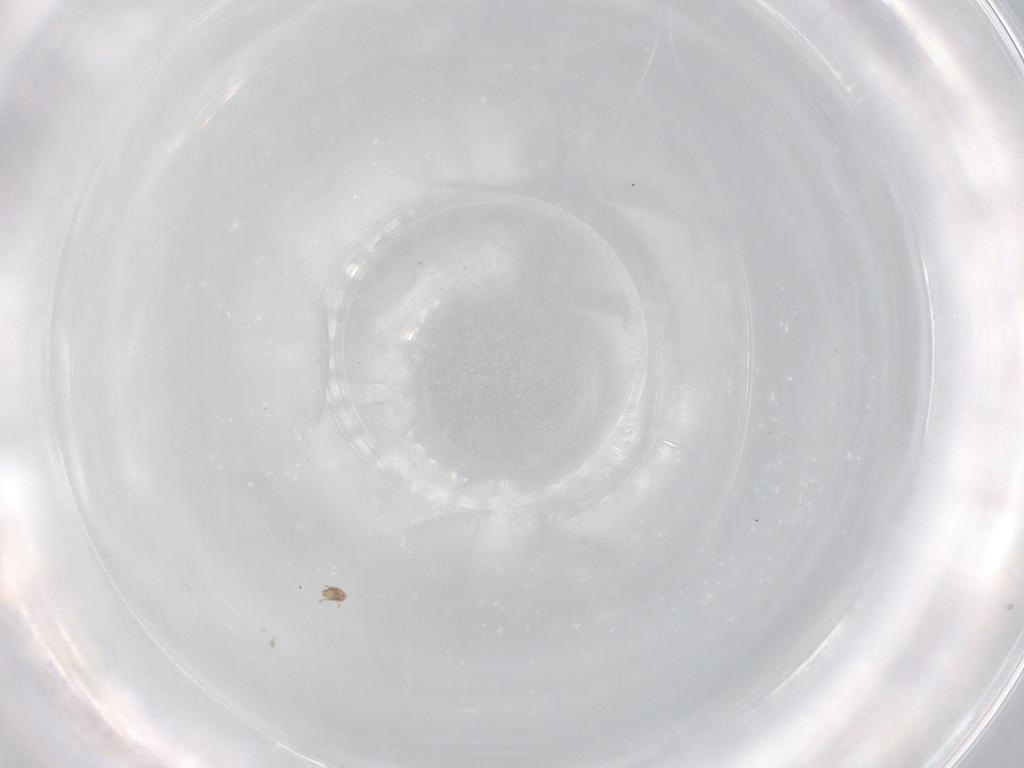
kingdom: Animalia
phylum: Arthropoda
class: Arachnida
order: Sarcoptiformes
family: Eremaeidae
